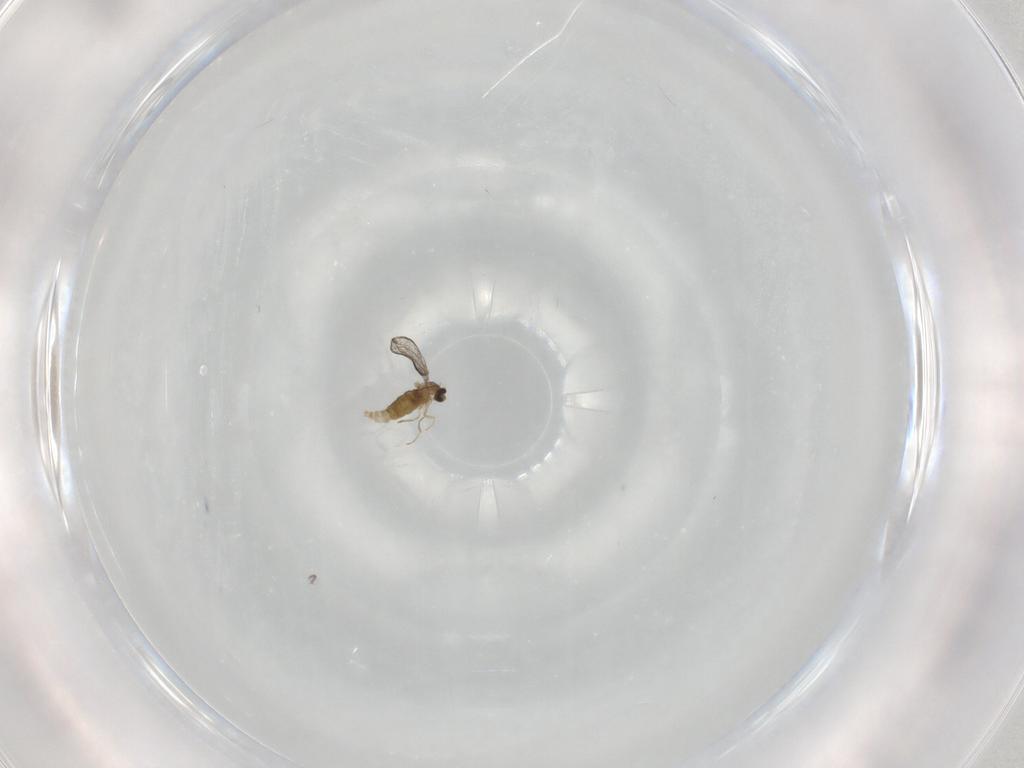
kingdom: Animalia
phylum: Arthropoda
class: Insecta
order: Diptera
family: Cecidomyiidae
